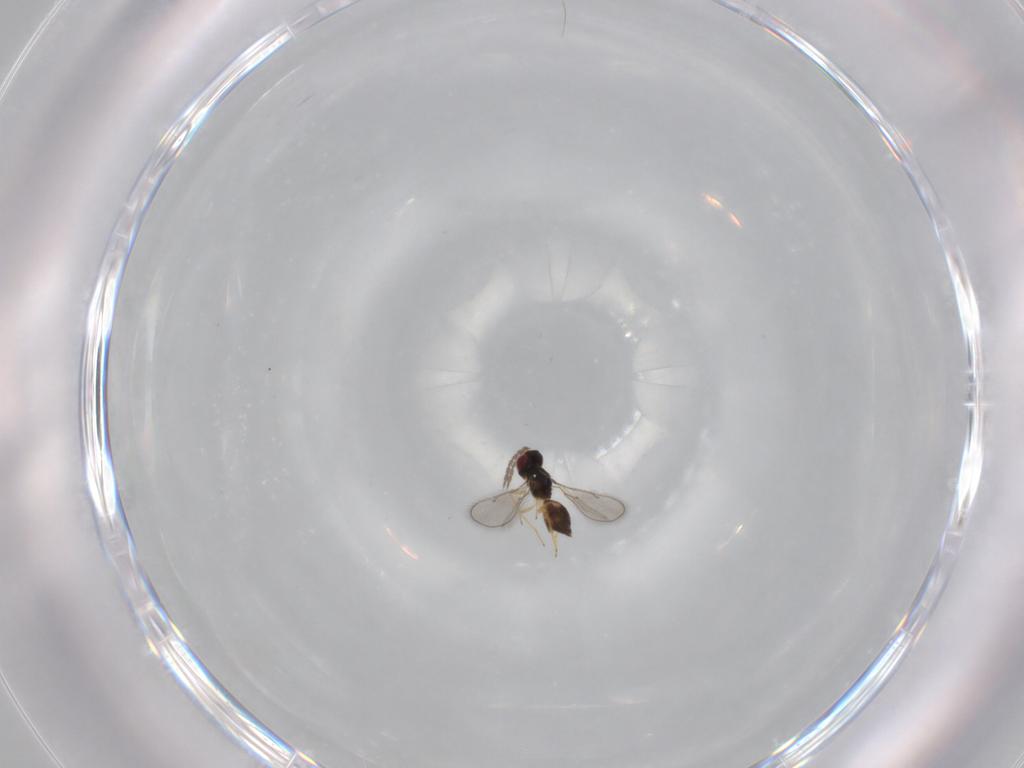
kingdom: Animalia
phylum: Arthropoda
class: Insecta
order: Hymenoptera
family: Eulophidae
